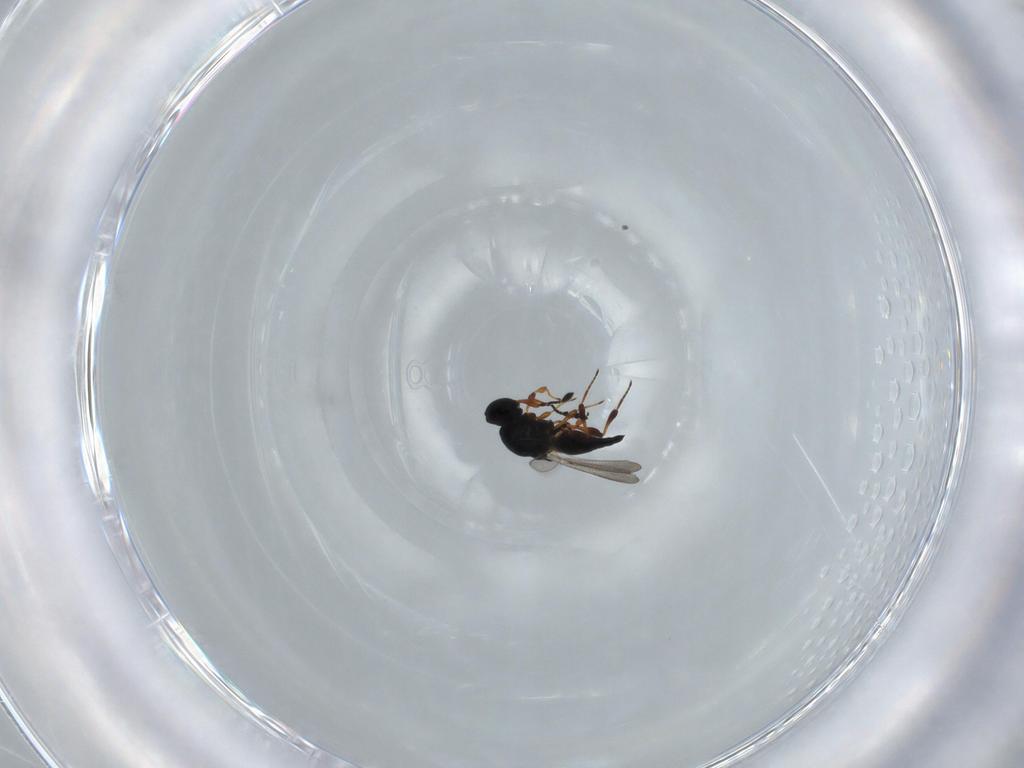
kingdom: Animalia
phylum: Arthropoda
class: Insecta
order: Hymenoptera
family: Platygastridae
